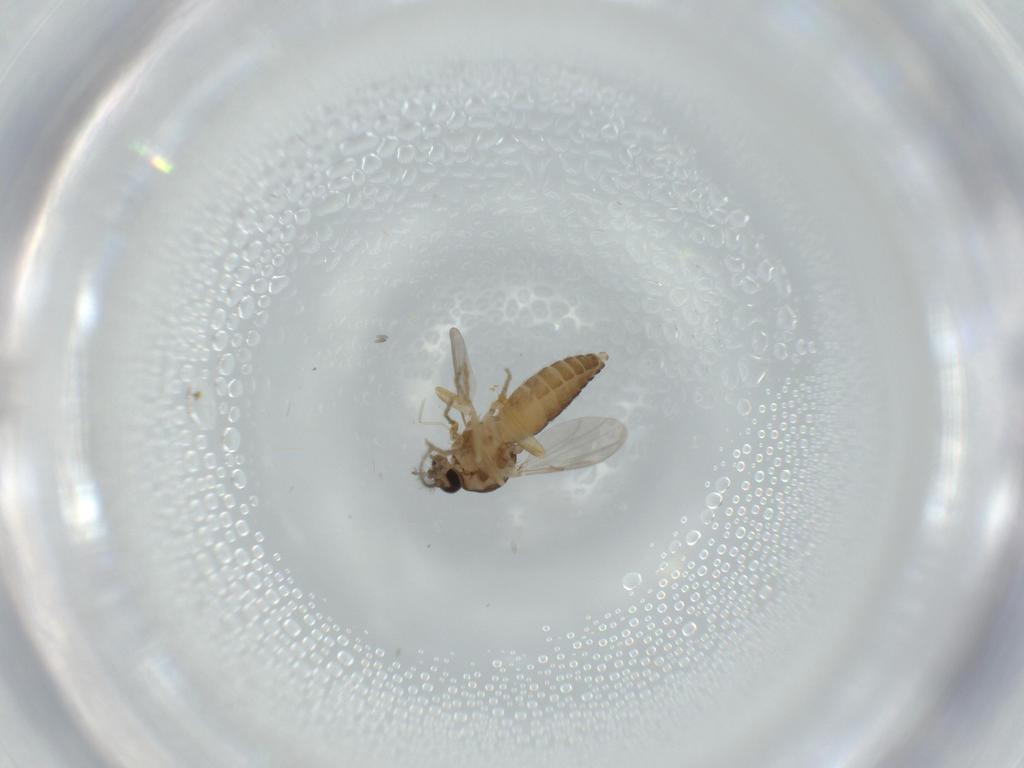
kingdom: Animalia
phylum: Arthropoda
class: Insecta
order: Diptera
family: Ceratopogonidae
